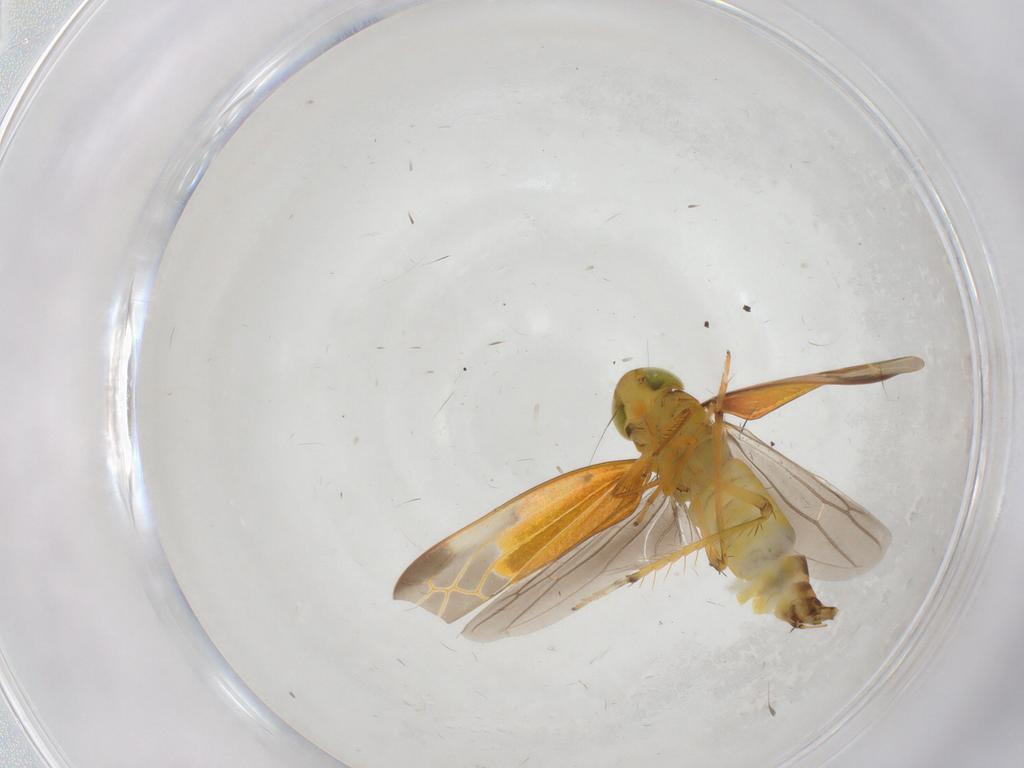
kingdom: Animalia
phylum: Arthropoda
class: Insecta
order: Hemiptera
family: Cicadellidae
